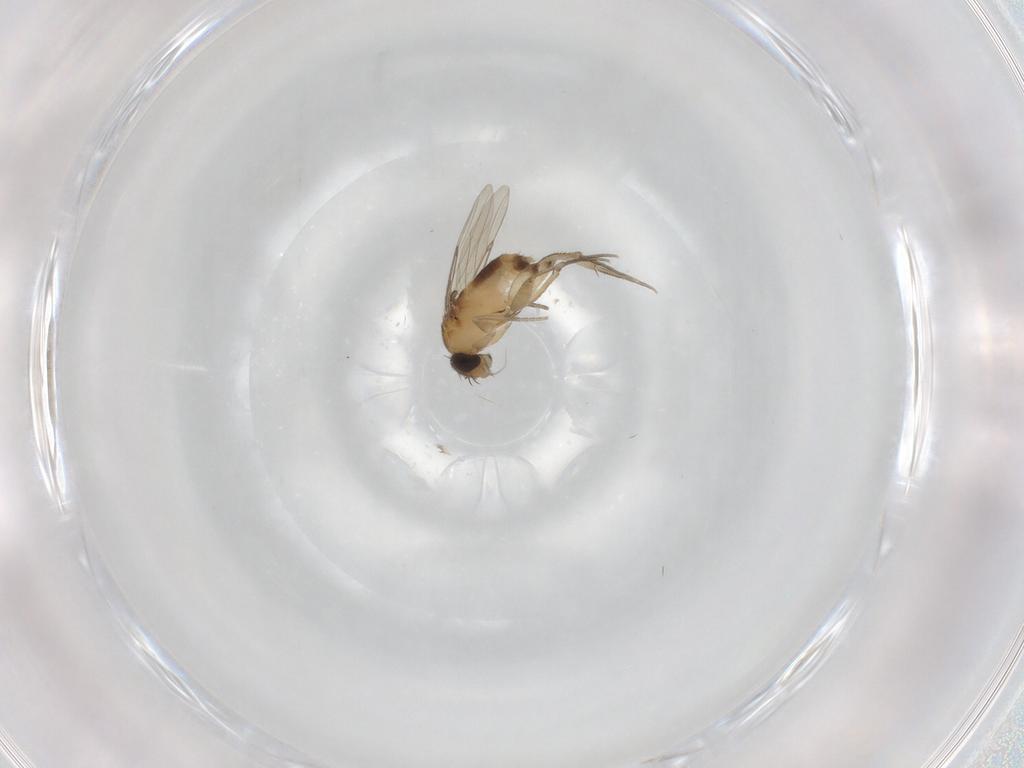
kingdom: Animalia
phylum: Arthropoda
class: Insecta
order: Diptera
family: Phoridae
